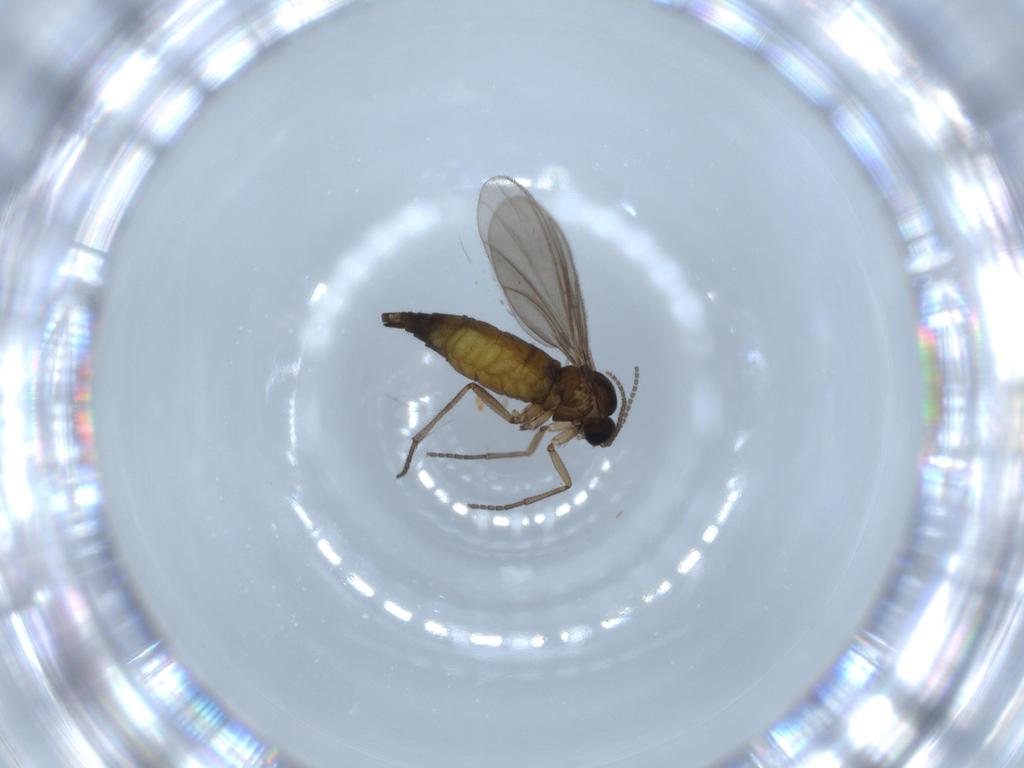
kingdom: Animalia
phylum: Arthropoda
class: Insecta
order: Diptera
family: Sciaridae
